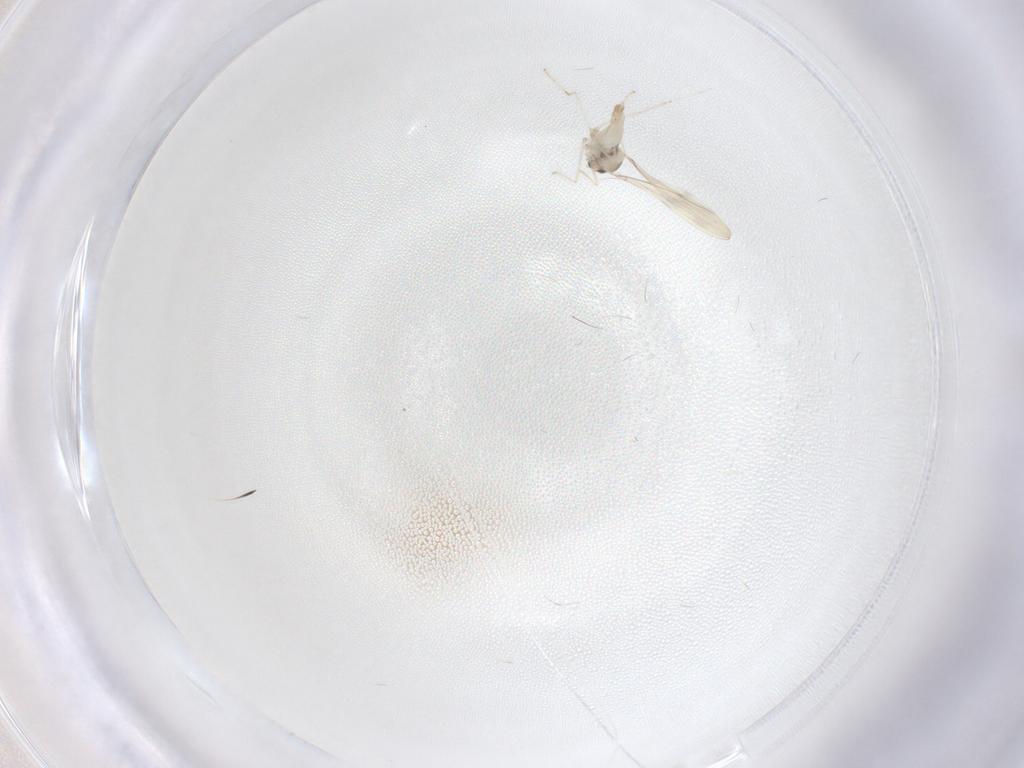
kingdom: Animalia
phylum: Arthropoda
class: Insecta
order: Diptera
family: Cecidomyiidae
